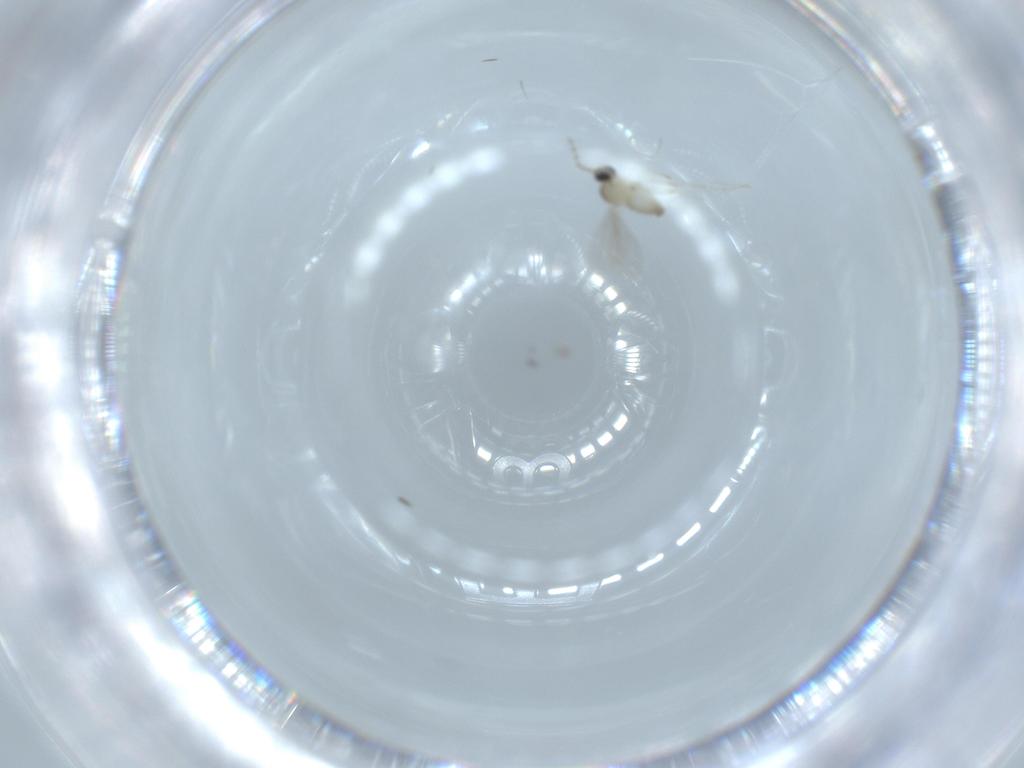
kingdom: Animalia
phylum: Arthropoda
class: Insecta
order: Diptera
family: Cecidomyiidae
